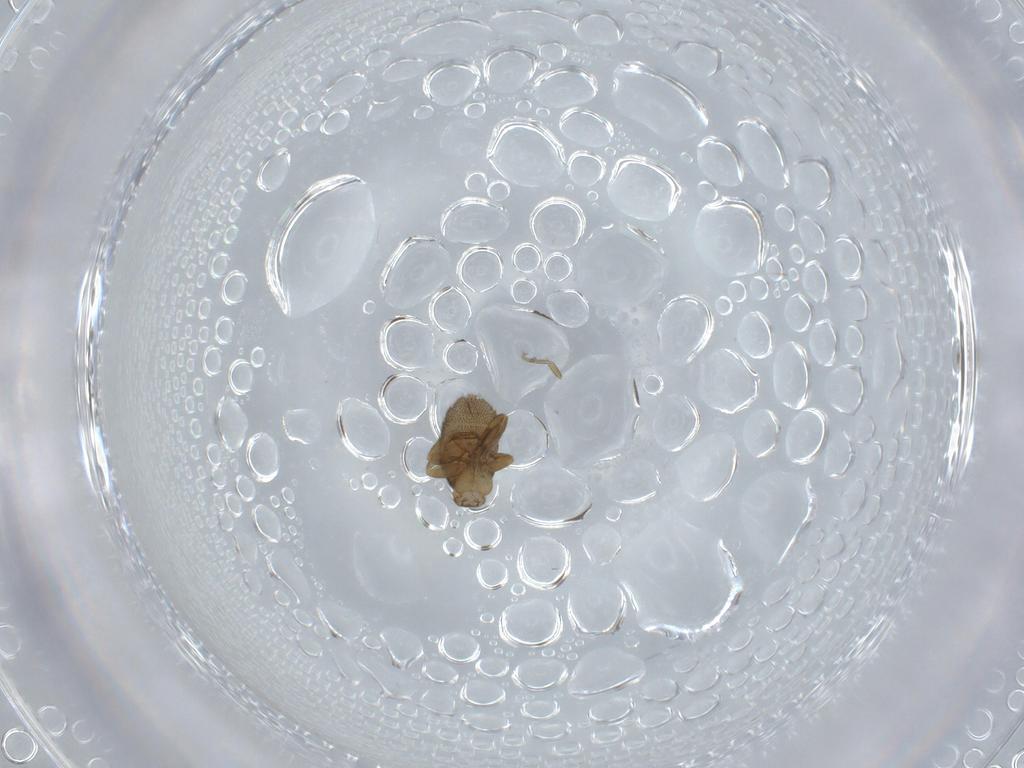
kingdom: Animalia
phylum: Arthropoda
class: Insecta
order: Diptera
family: Phoridae
